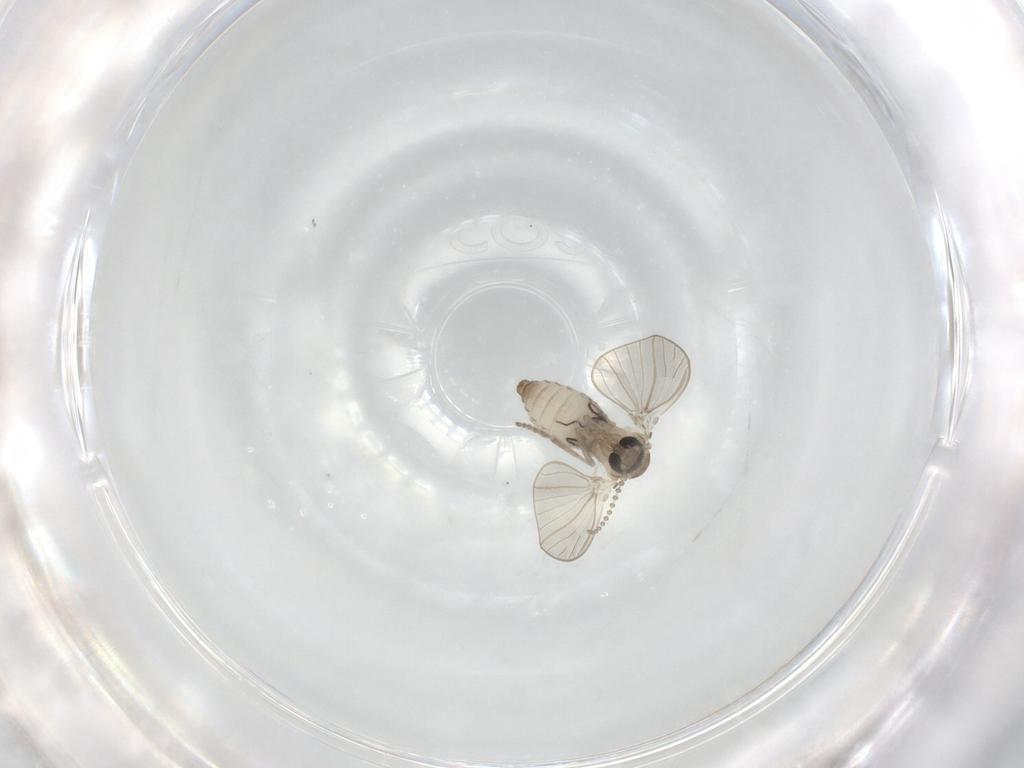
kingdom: Animalia
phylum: Arthropoda
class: Insecta
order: Diptera
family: Psychodidae
